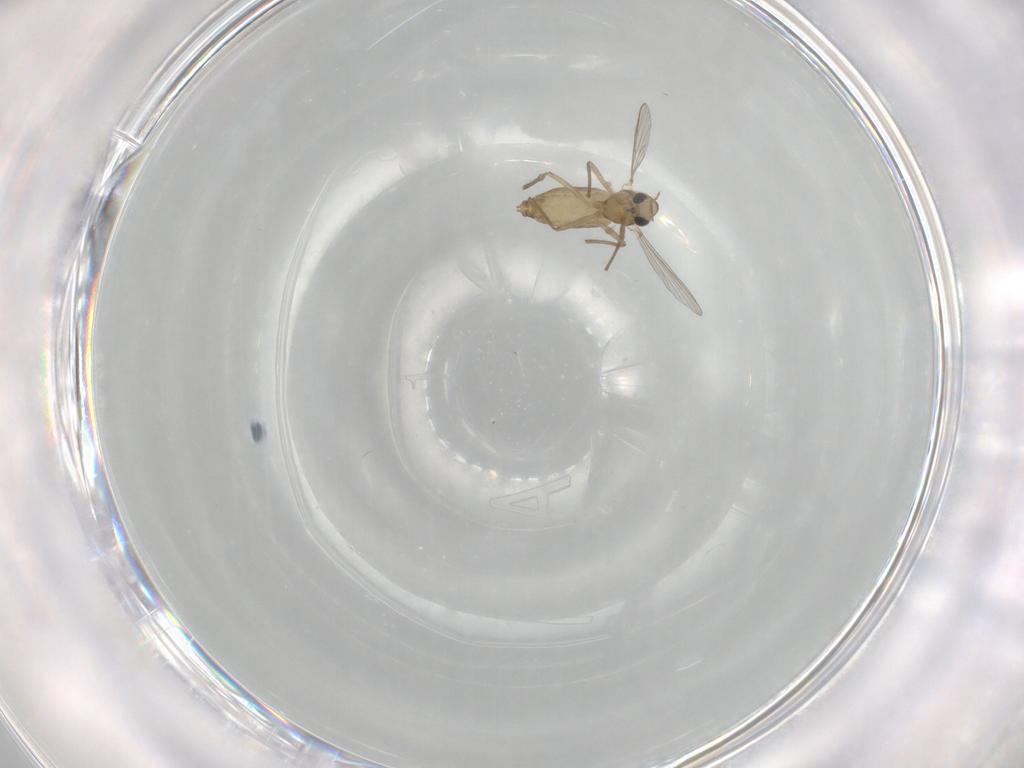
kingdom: Animalia
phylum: Arthropoda
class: Insecta
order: Diptera
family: Chironomidae
